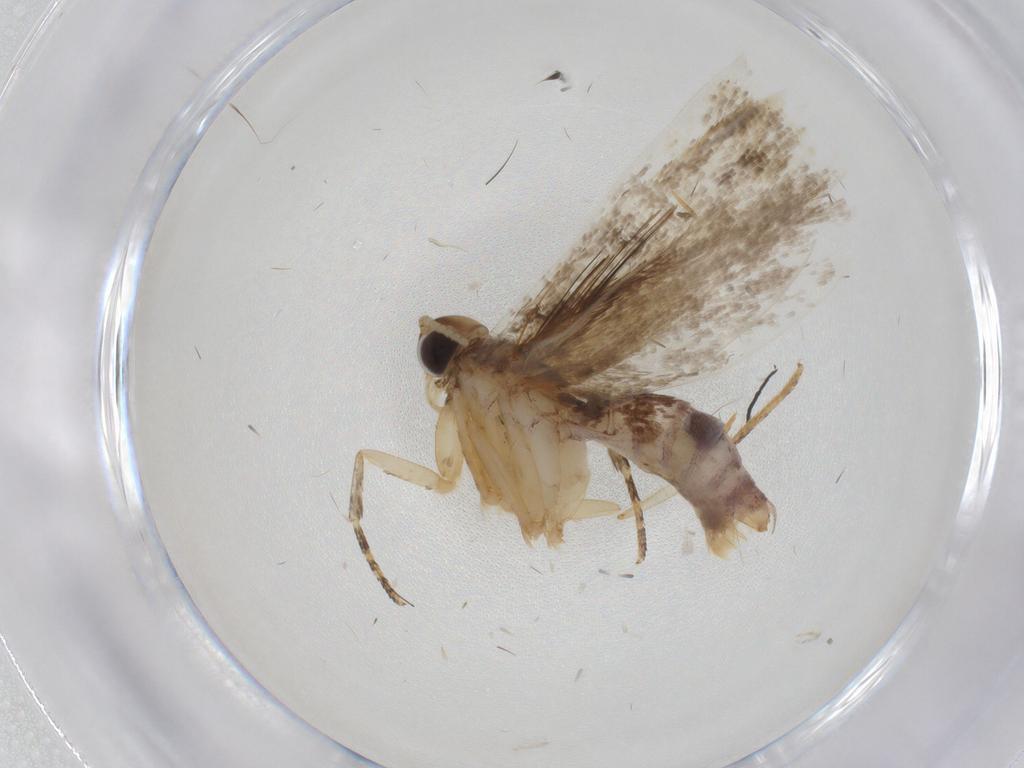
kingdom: Animalia
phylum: Arthropoda
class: Insecta
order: Lepidoptera
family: Gelechiidae
